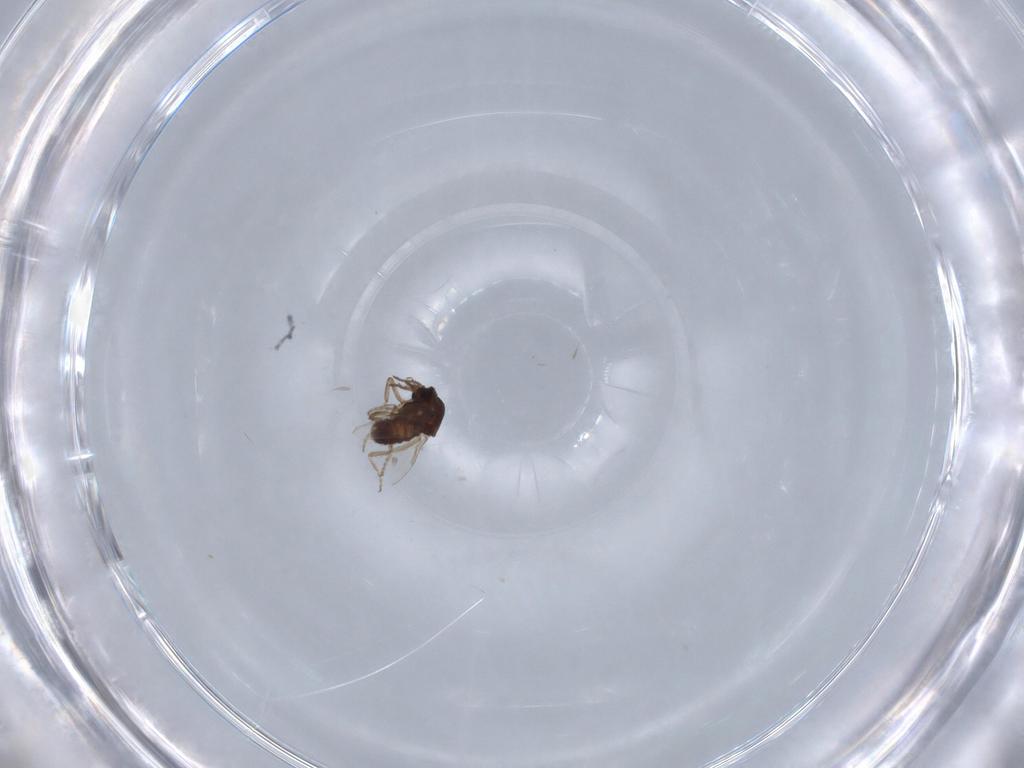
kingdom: Animalia
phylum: Arthropoda
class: Insecta
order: Diptera
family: Ceratopogonidae
